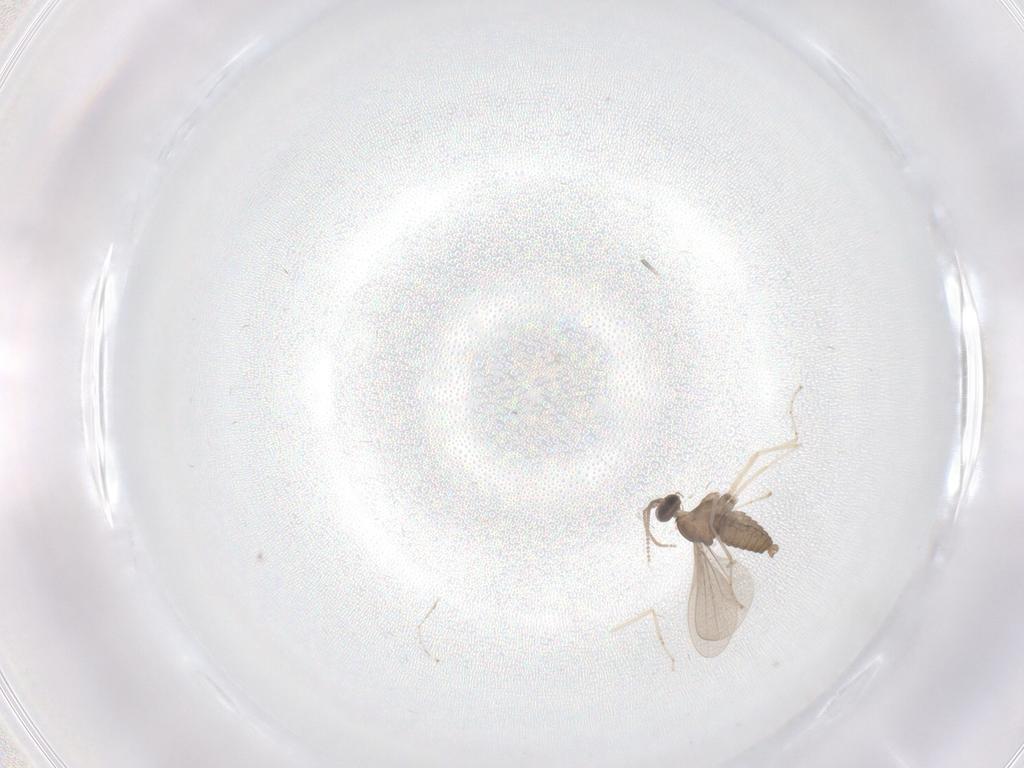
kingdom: Animalia
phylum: Arthropoda
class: Insecta
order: Diptera
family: Cecidomyiidae
